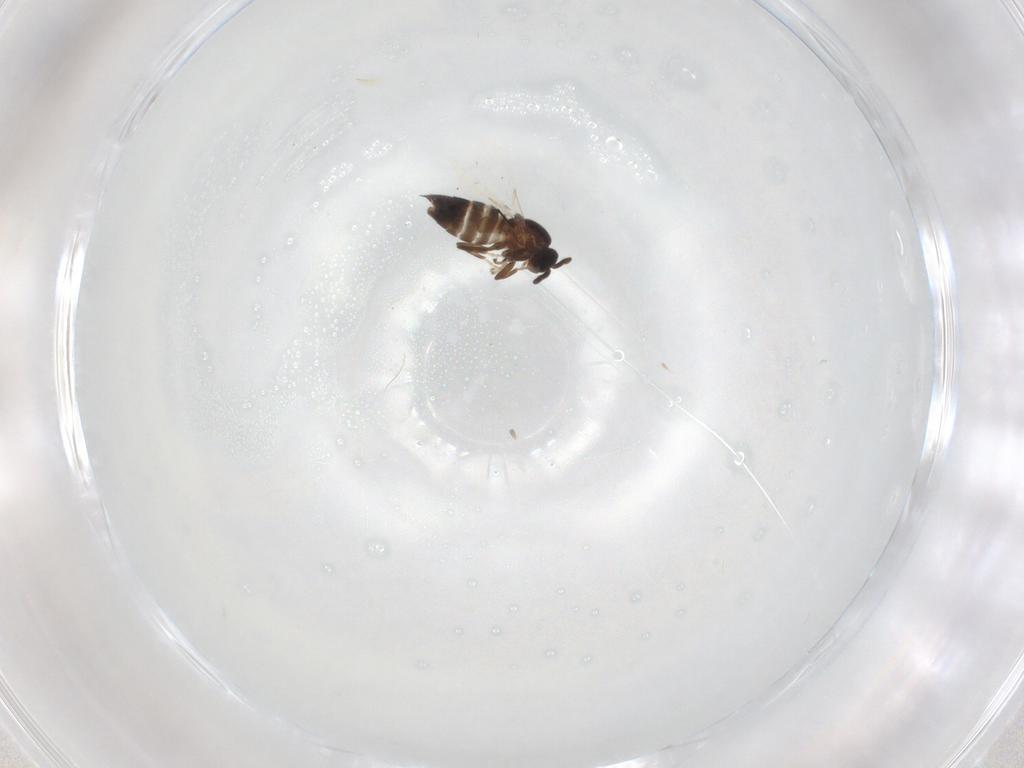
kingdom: Animalia
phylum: Arthropoda
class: Insecta
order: Diptera
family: Scatopsidae
